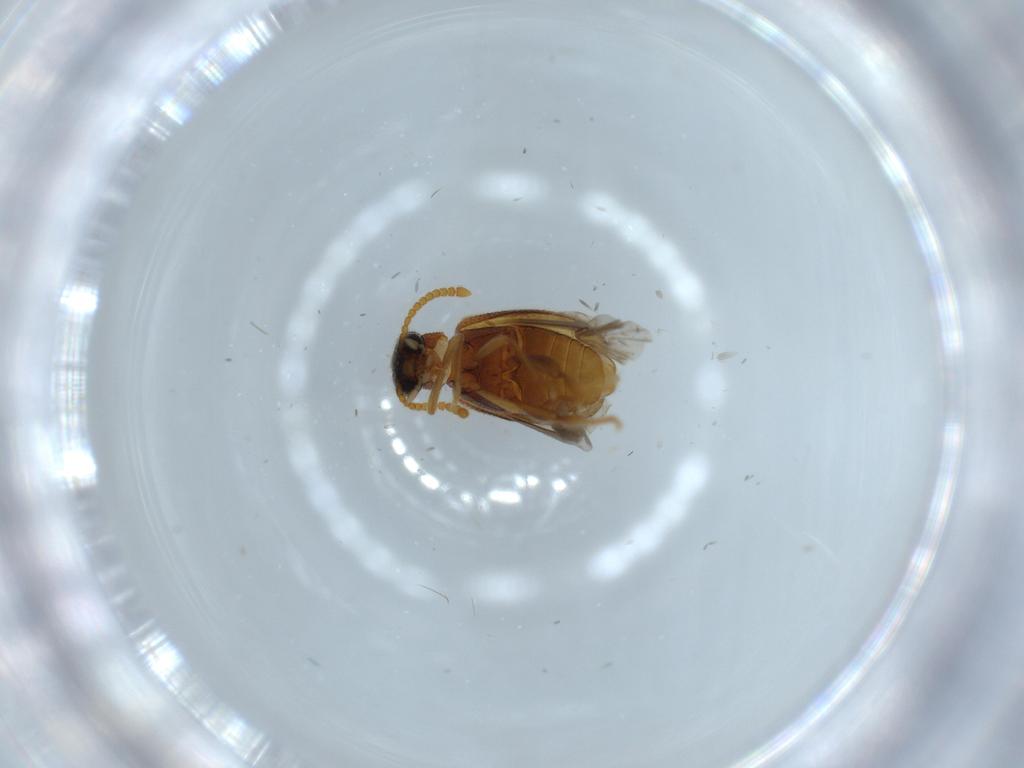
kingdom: Animalia
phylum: Arthropoda
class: Insecta
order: Coleoptera
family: Aderidae
